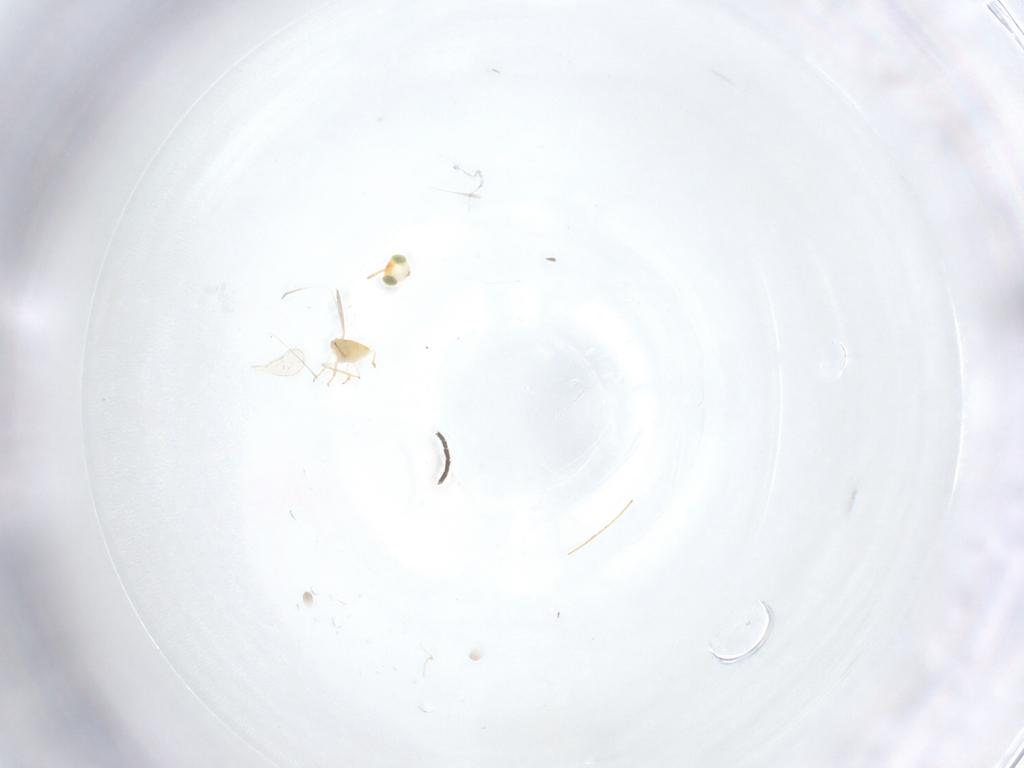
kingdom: Animalia
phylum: Arthropoda
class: Insecta
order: Hymenoptera
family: Aphelinidae
